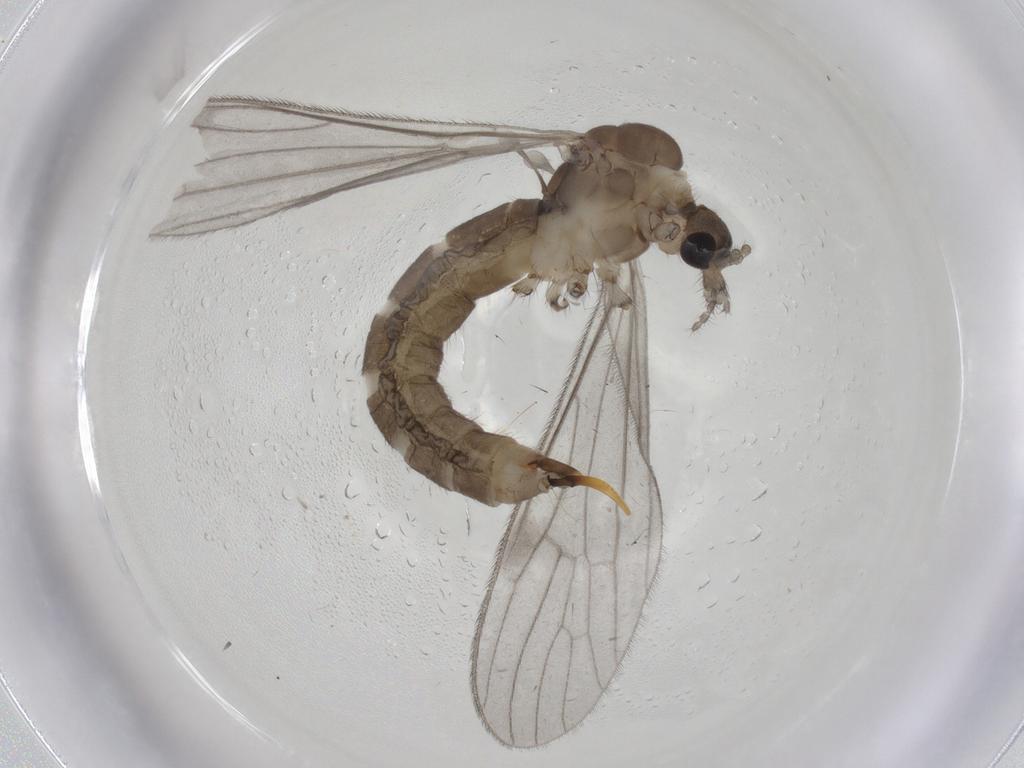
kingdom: Animalia
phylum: Arthropoda
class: Insecta
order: Diptera
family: Limoniidae
